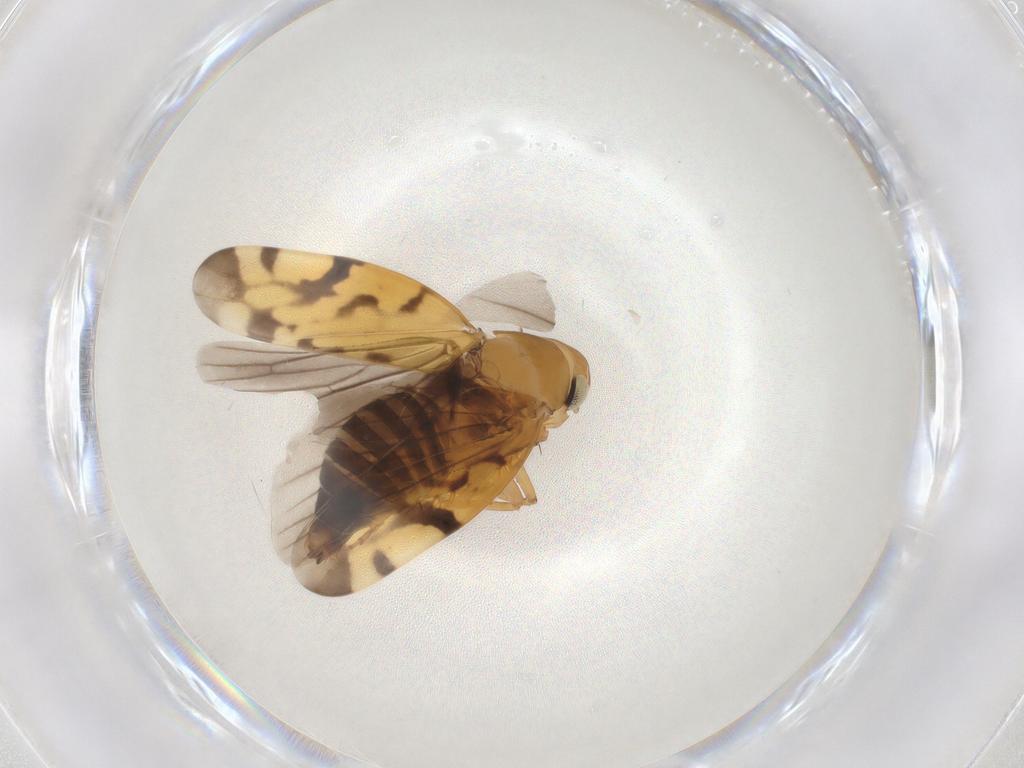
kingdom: Animalia
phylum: Arthropoda
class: Insecta
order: Hemiptera
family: Cicadellidae
